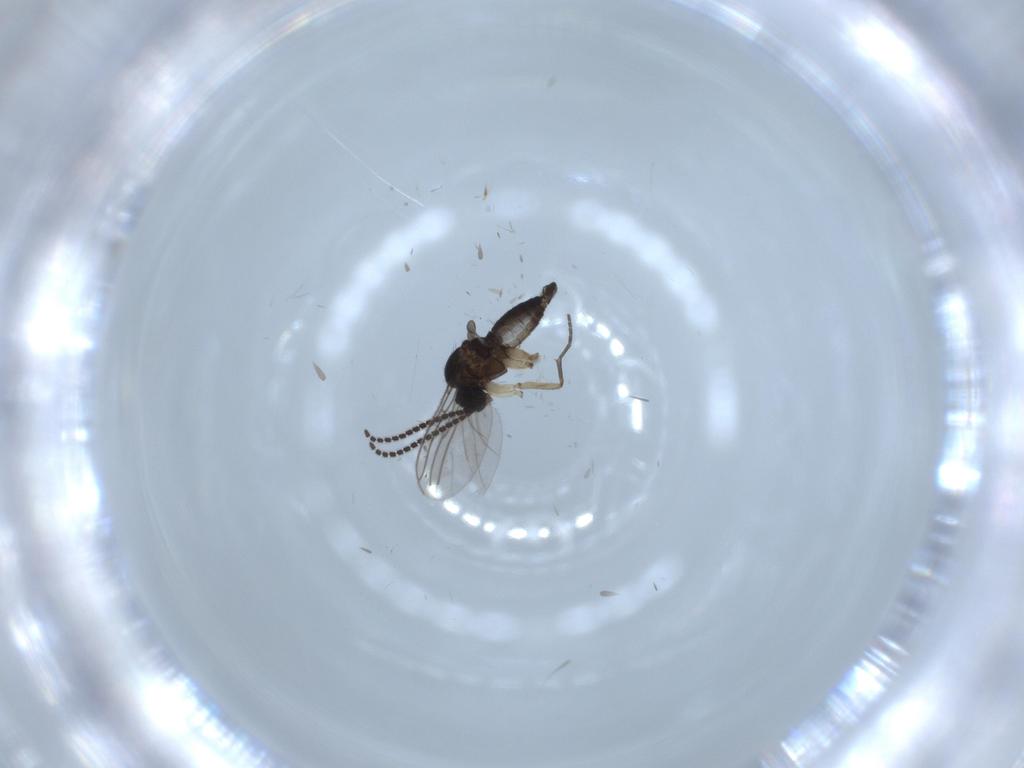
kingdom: Animalia
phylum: Arthropoda
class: Insecta
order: Diptera
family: Sciaridae
